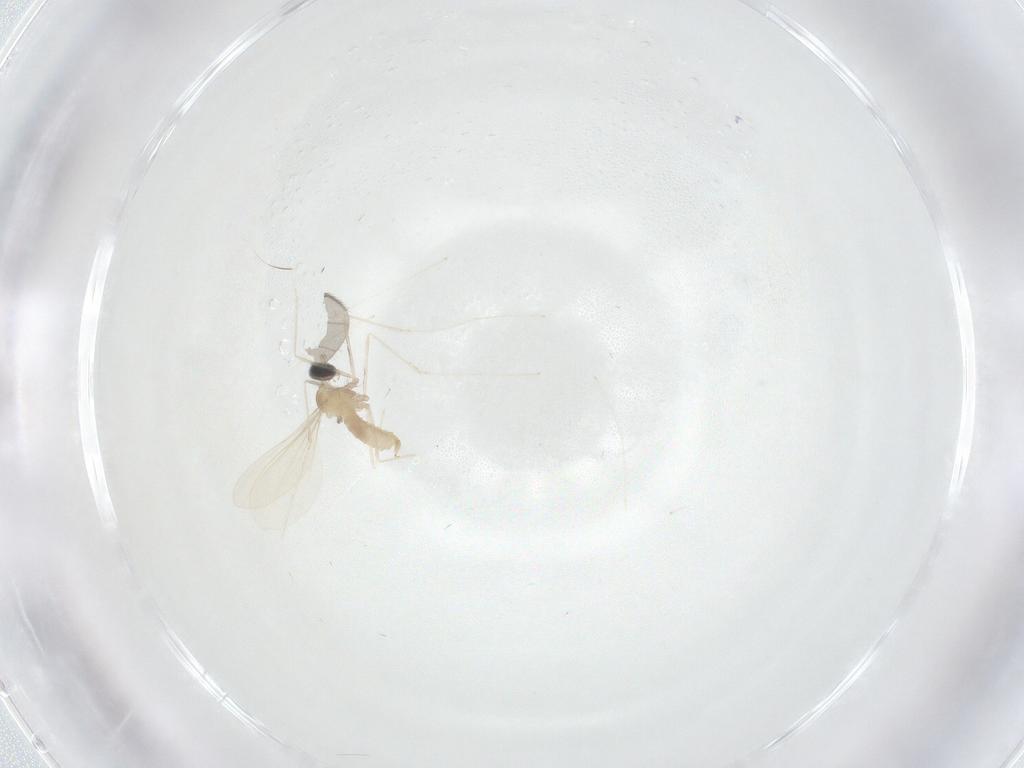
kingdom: Animalia
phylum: Arthropoda
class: Insecta
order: Diptera
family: Cecidomyiidae
